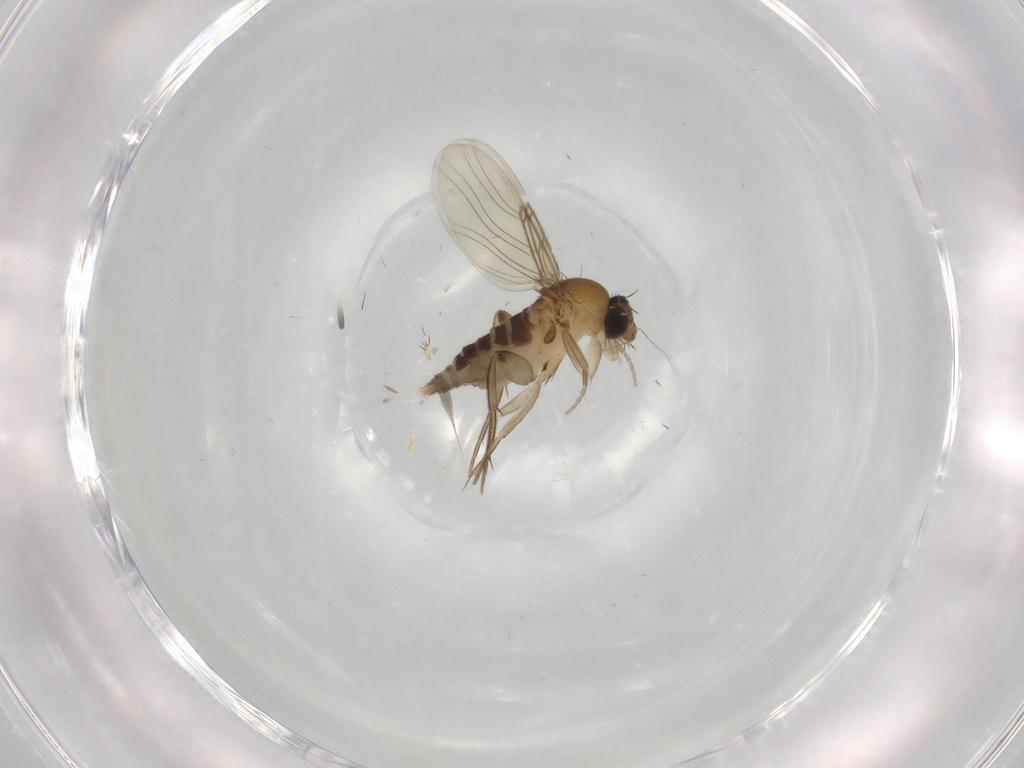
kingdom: Animalia
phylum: Arthropoda
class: Insecta
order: Diptera
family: Phoridae
